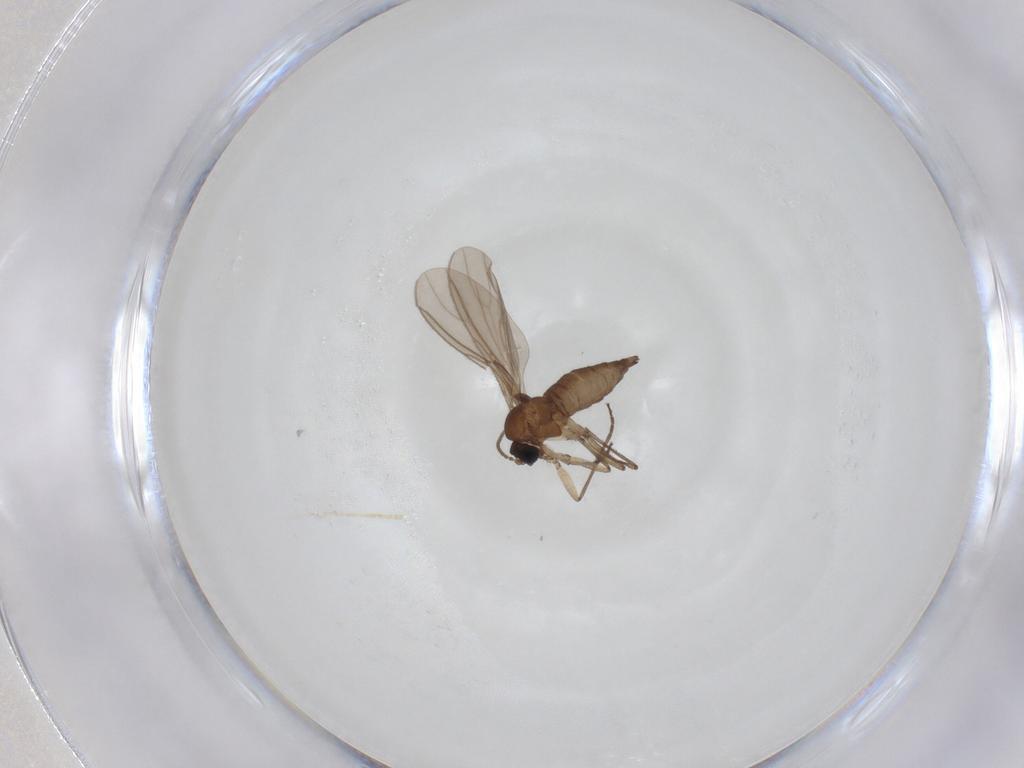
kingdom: Animalia
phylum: Arthropoda
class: Insecta
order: Diptera
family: Sciaridae
